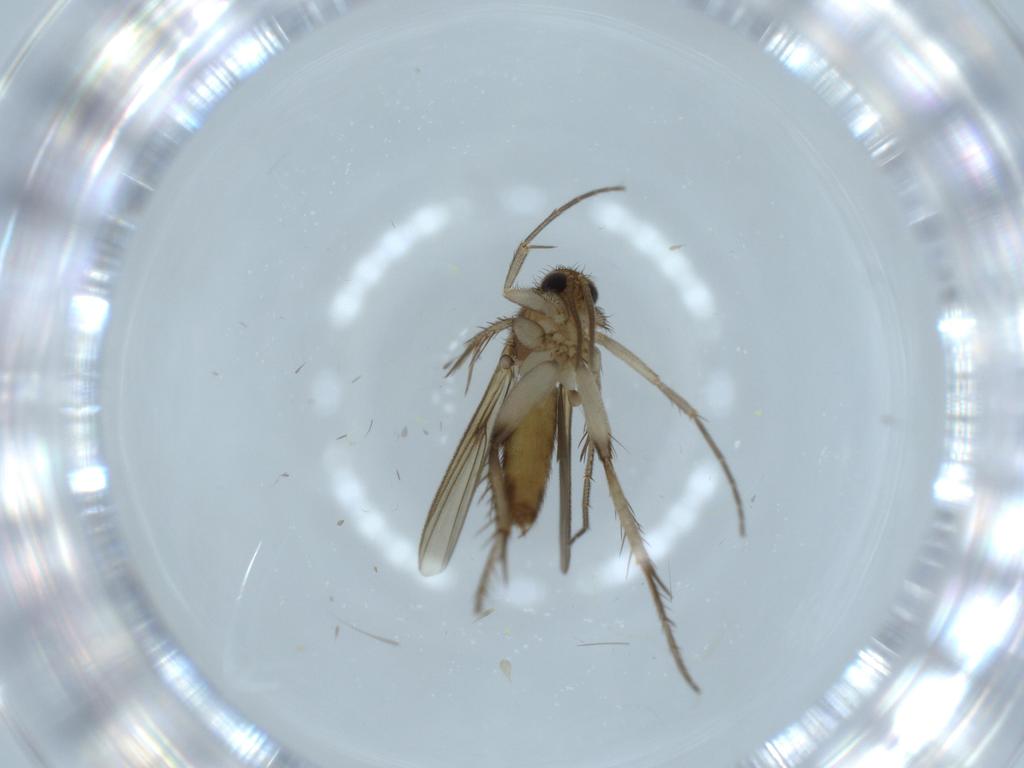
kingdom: Animalia
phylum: Arthropoda
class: Insecta
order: Diptera
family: Mycetophilidae
